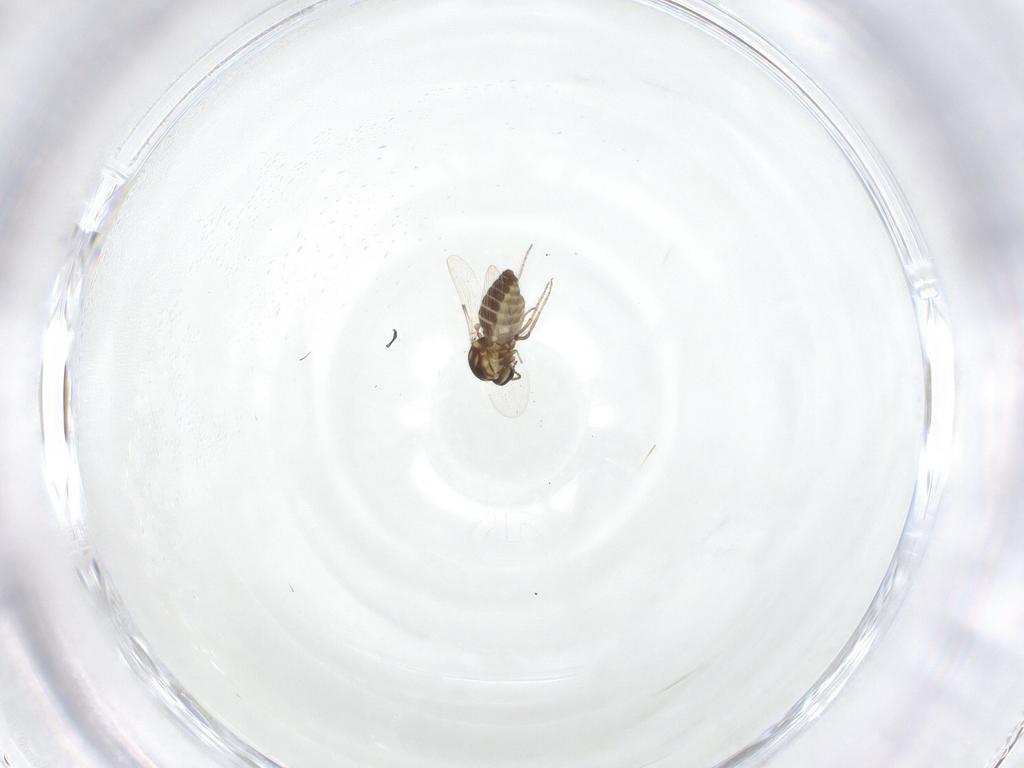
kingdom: Animalia
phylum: Arthropoda
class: Insecta
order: Diptera
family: Ceratopogonidae
